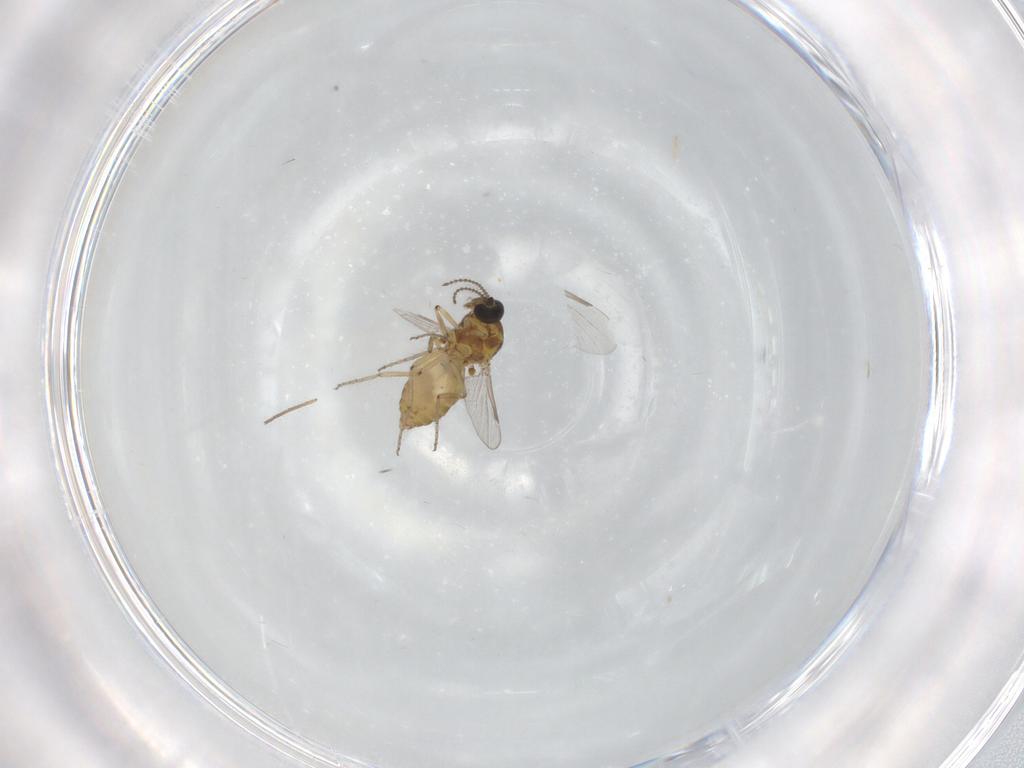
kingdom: Animalia
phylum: Arthropoda
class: Insecta
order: Diptera
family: Ceratopogonidae
